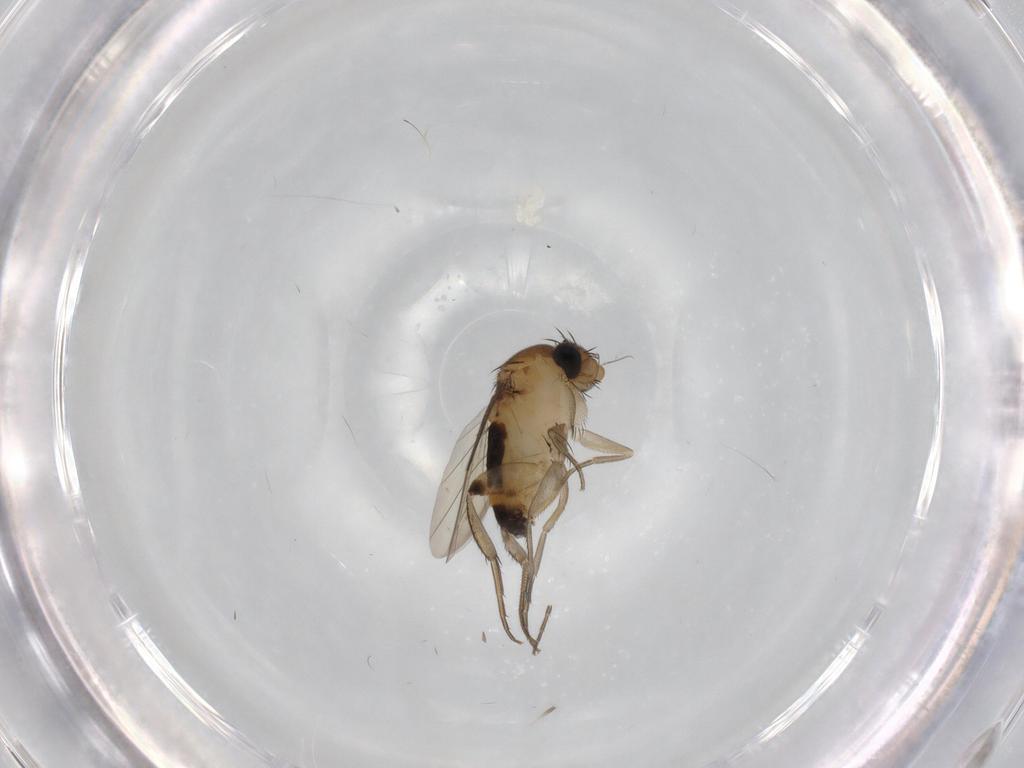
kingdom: Animalia
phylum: Arthropoda
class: Insecta
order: Diptera
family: Phoridae
